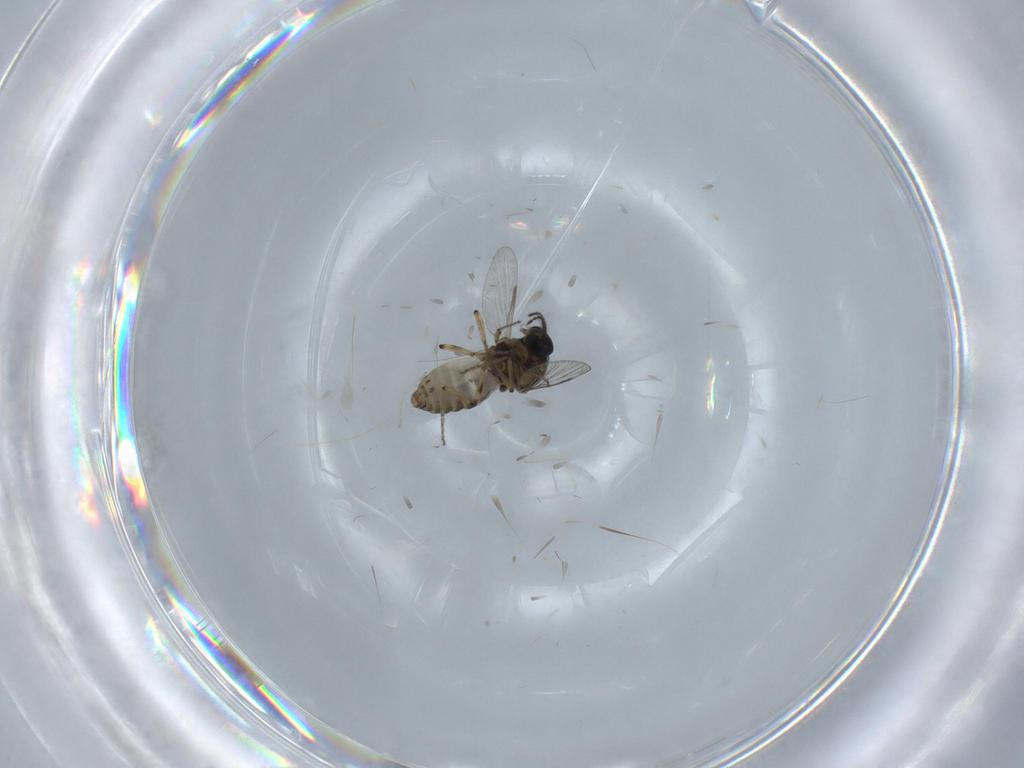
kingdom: Animalia
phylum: Arthropoda
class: Insecta
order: Diptera
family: Cecidomyiidae
